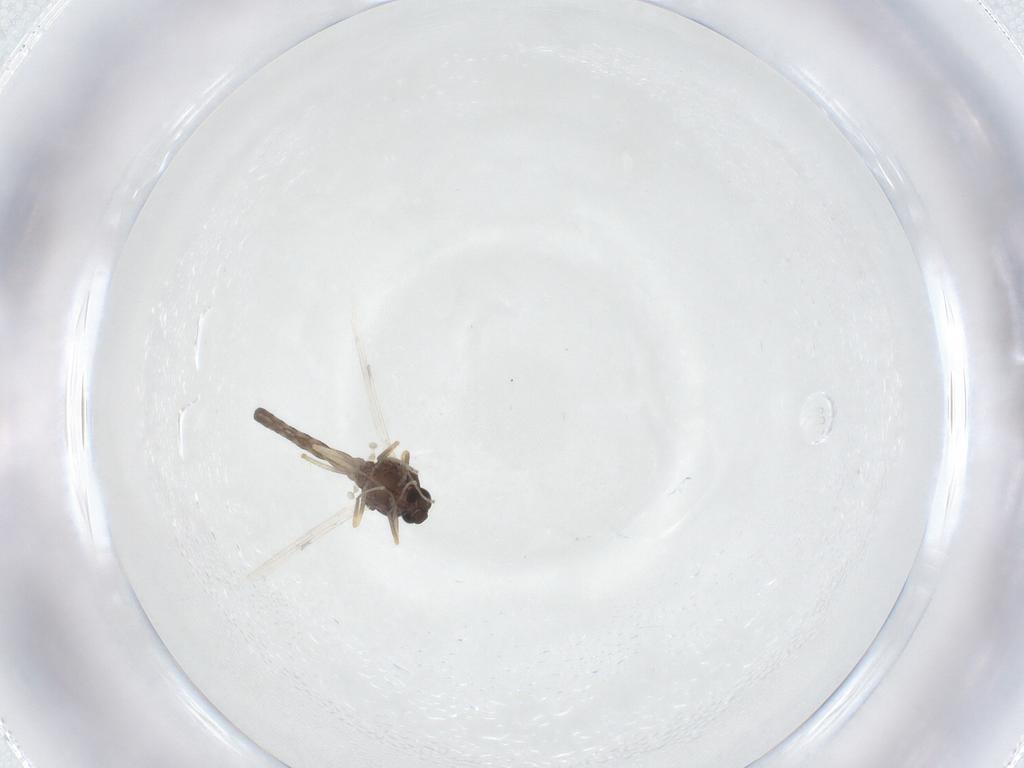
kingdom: Animalia
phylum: Arthropoda
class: Insecta
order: Diptera
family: Ceratopogonidae
